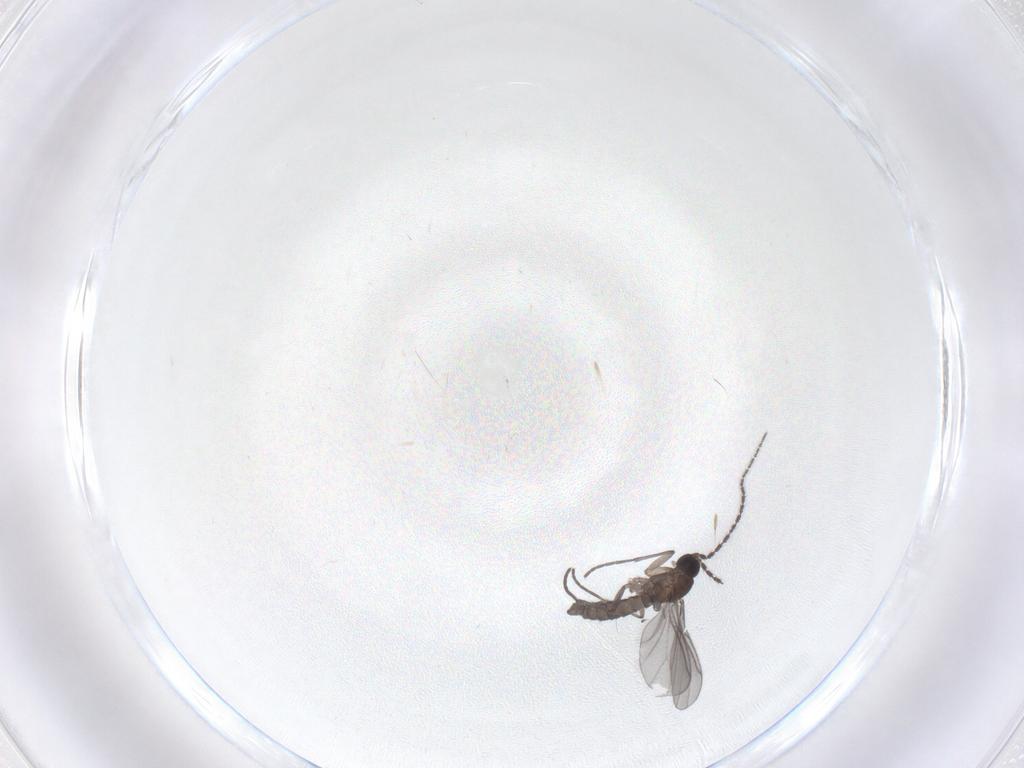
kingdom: Animalia
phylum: Arthropoda
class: Insecta
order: Diptera
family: Sciaridae
